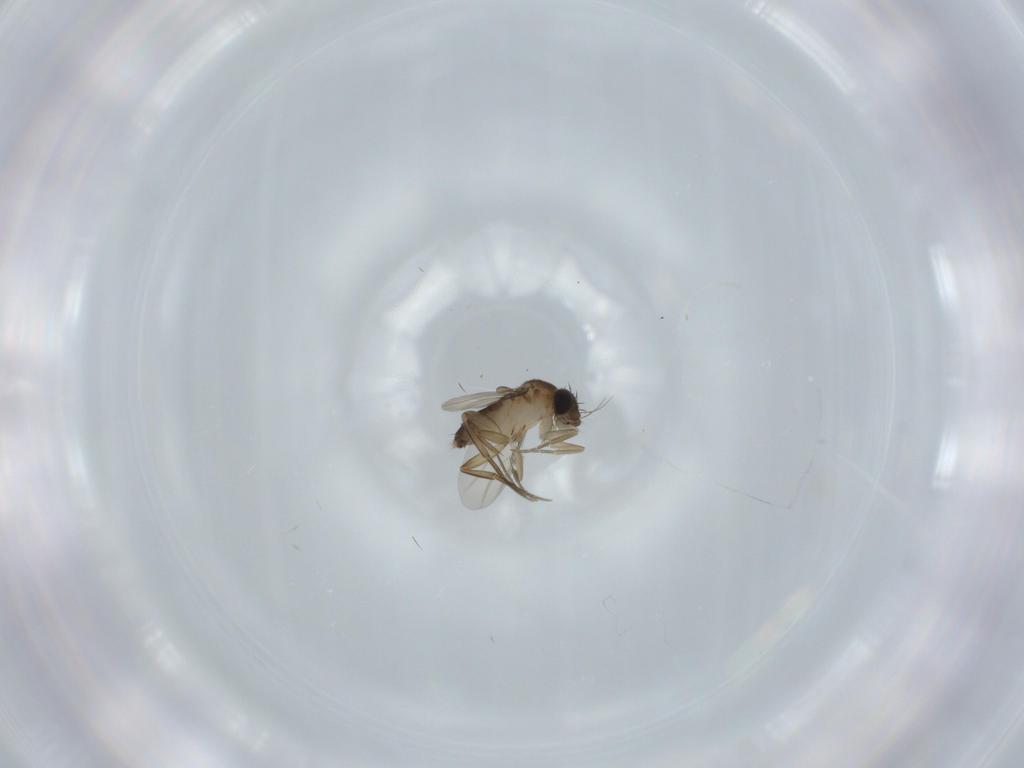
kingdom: Animalia
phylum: Arthropoda
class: Insecta
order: Diptera
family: Phoridae
